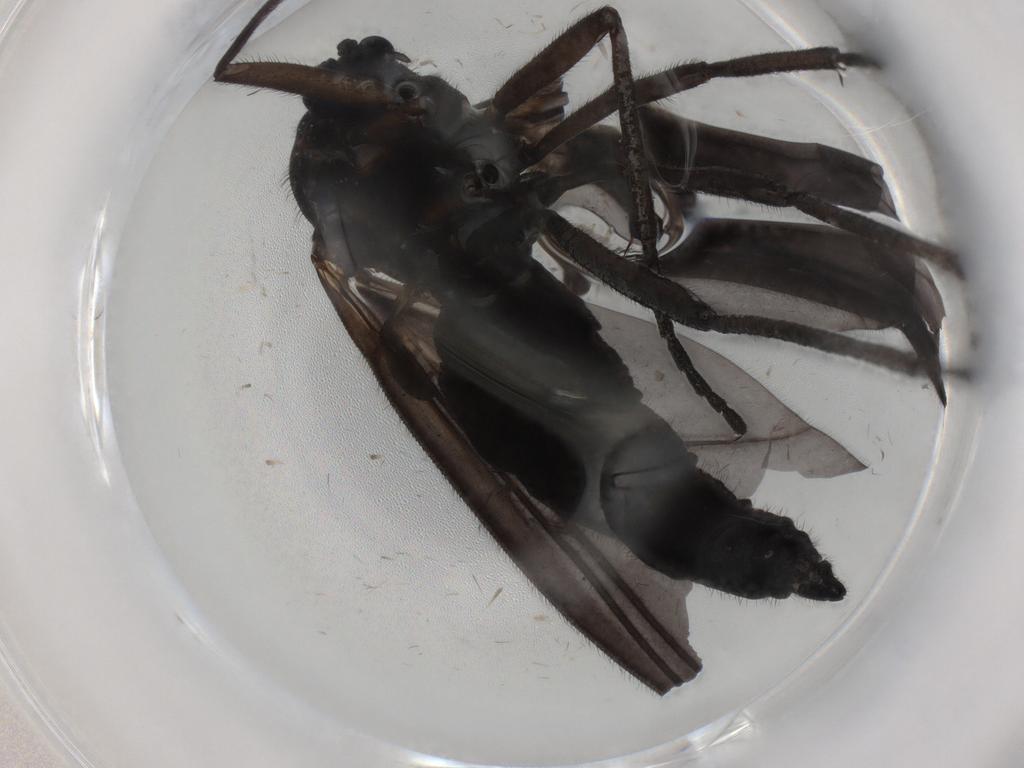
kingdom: Animalia
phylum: Arthropoda
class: Insecta
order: Diptera
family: Sciaridae
